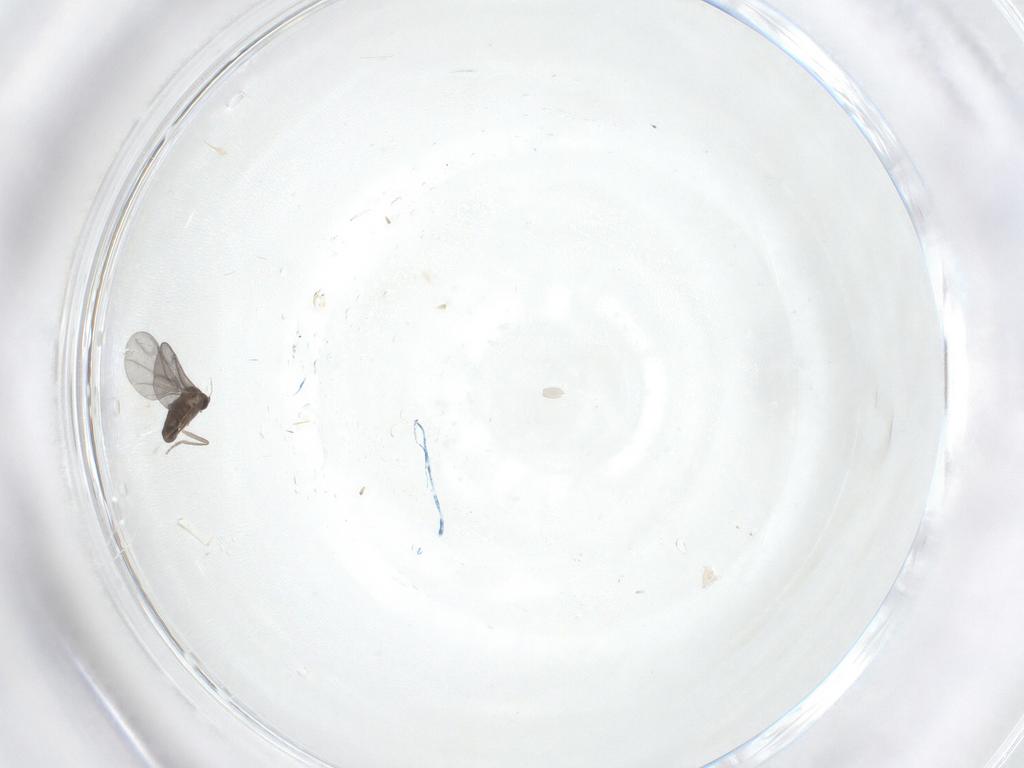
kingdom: Animalia
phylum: Arthropoda
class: Insecta
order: Diptera
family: Phoridae
